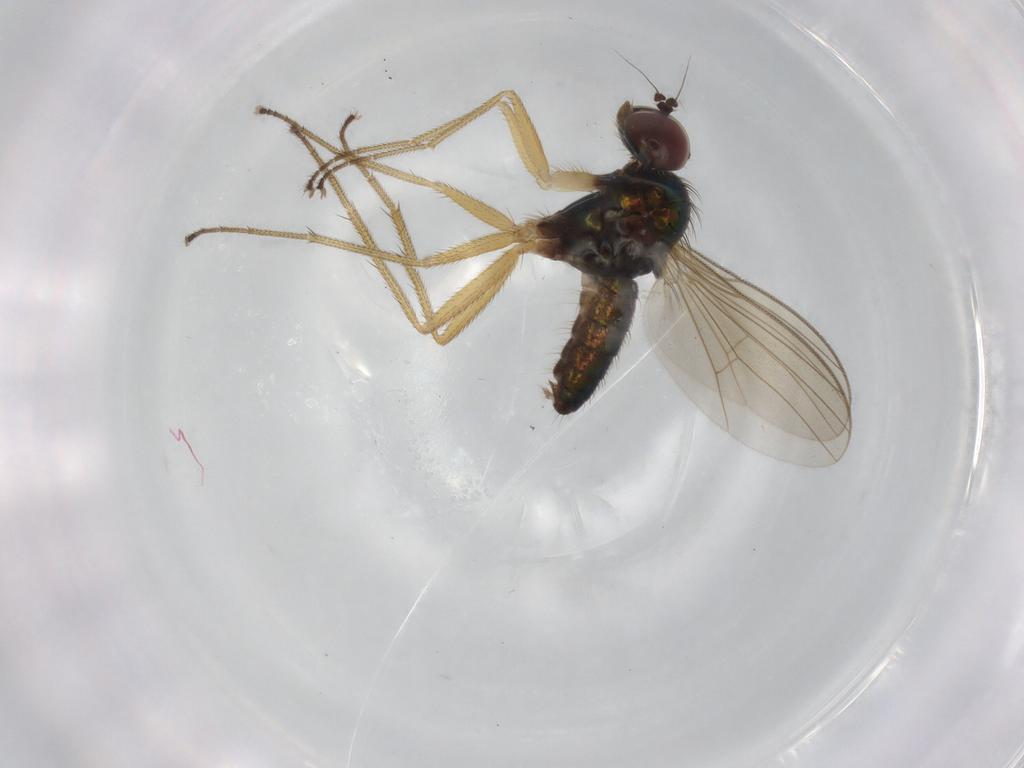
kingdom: Animalia
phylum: Arthropoda
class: Insecta
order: Diptera
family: Dolichopodidae
